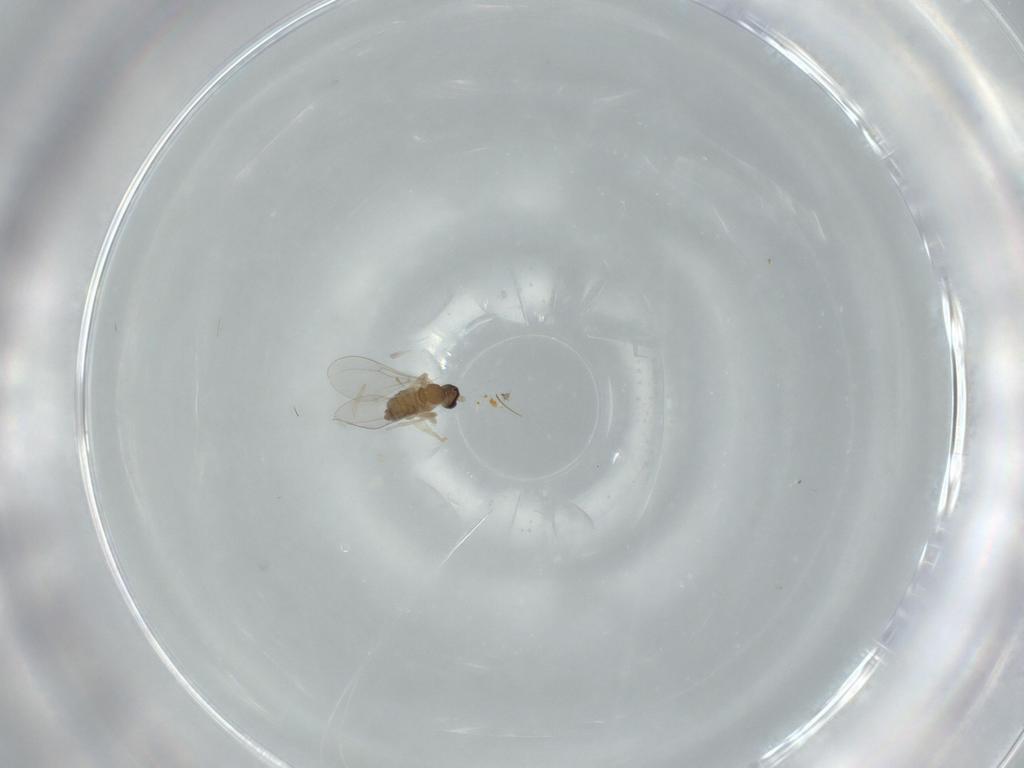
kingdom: Animalia
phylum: Arthropoda
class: Insecta
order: Diptera
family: Cecidomyiidae
